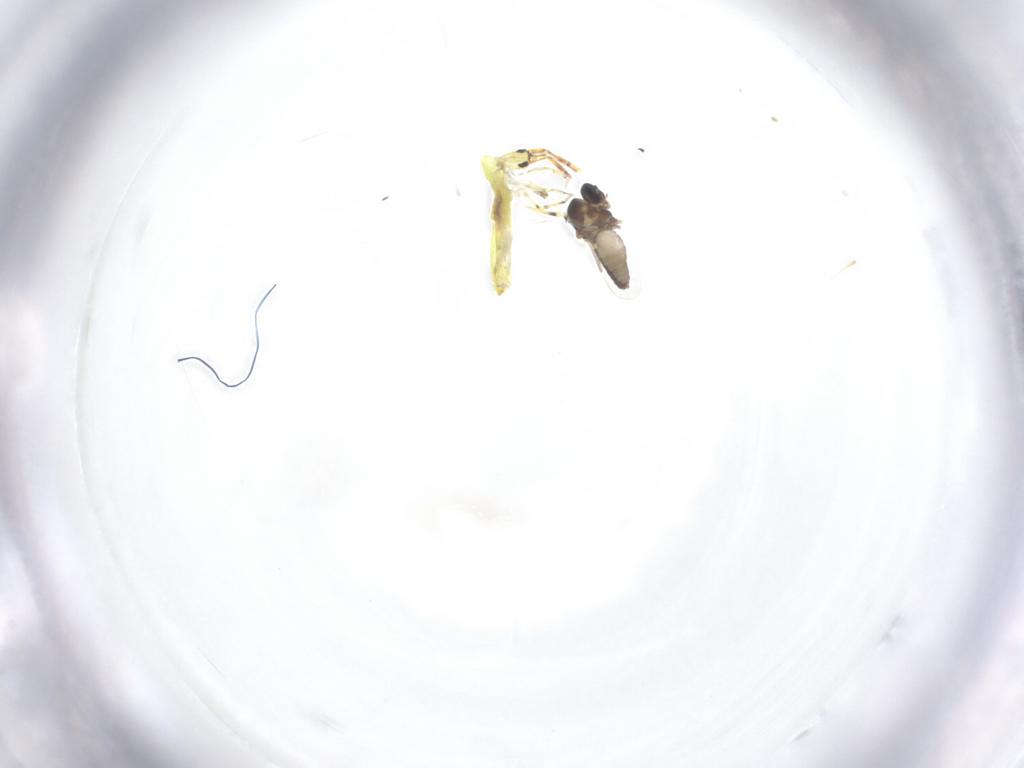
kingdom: Animalia
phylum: Arthropoda
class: Insecta
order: Diptera
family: Ceratopogonidae
